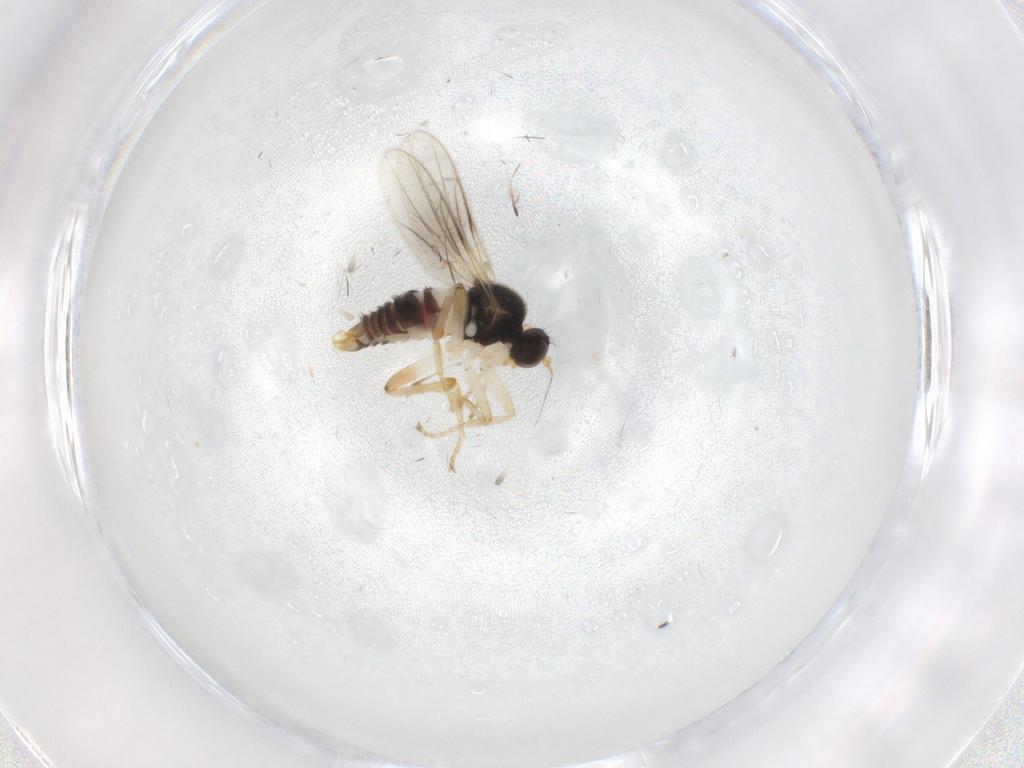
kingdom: Animalia
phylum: Arthropoda
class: Insecta
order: Diptera
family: Hybotidae
